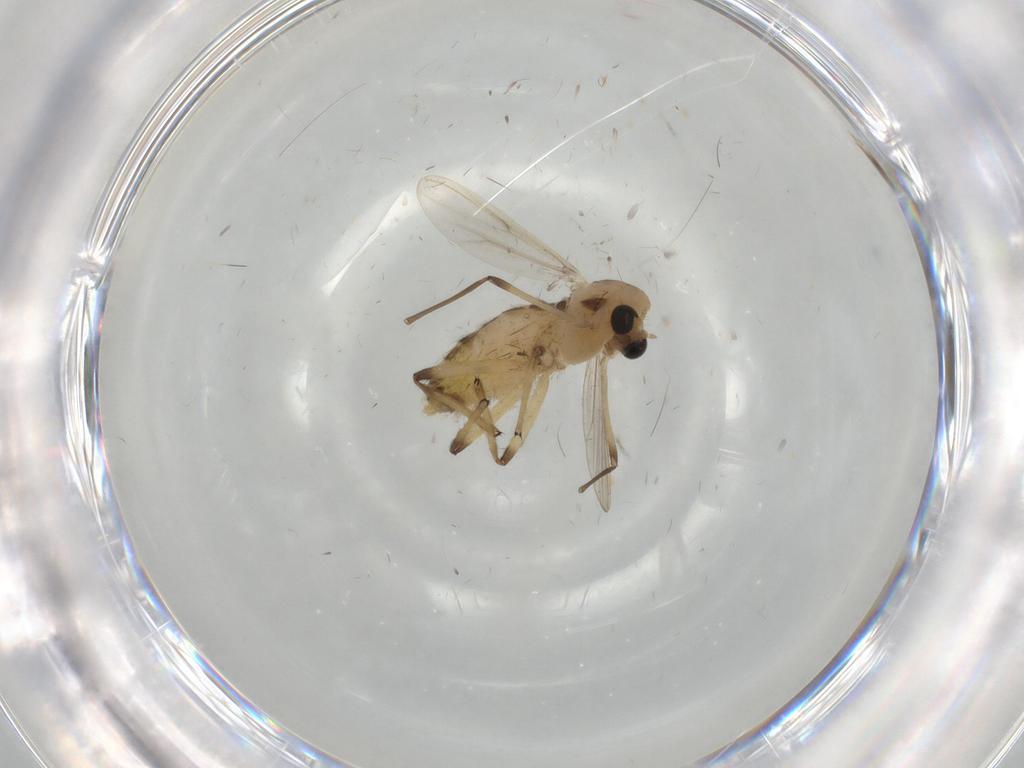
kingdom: Animalia
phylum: Arthropoda
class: Insecta
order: Diptera
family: Chironomidae
